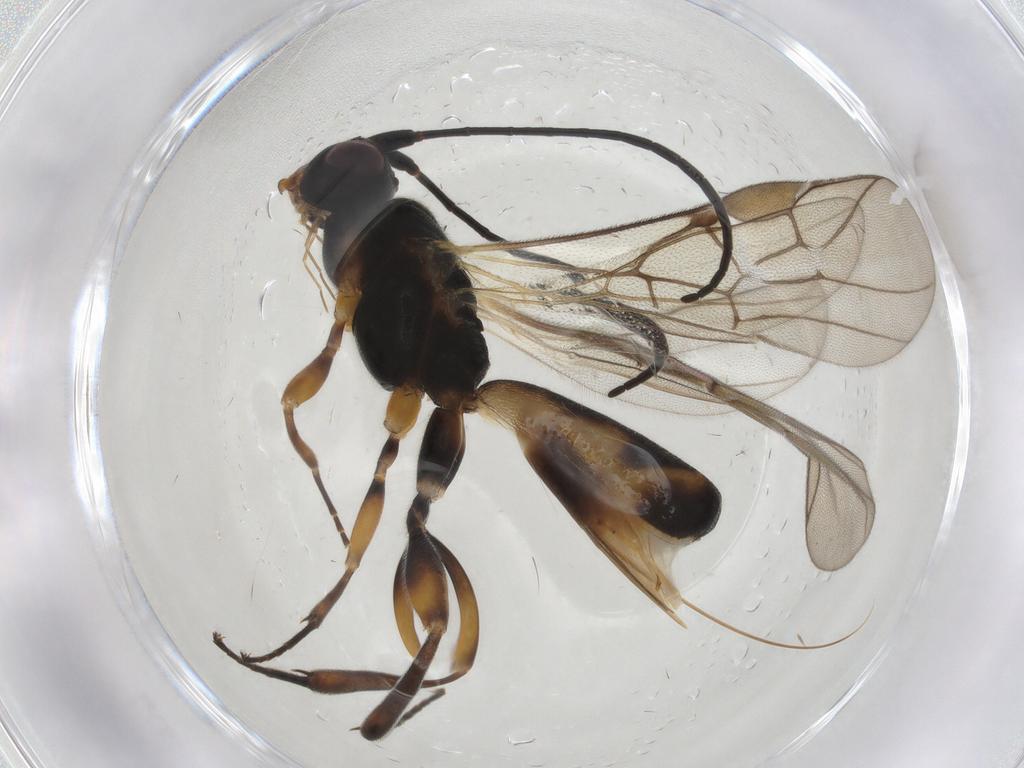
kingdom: Animalia
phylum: Arthropoda
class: Insecta
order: Hymenoptera
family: Braconidae
